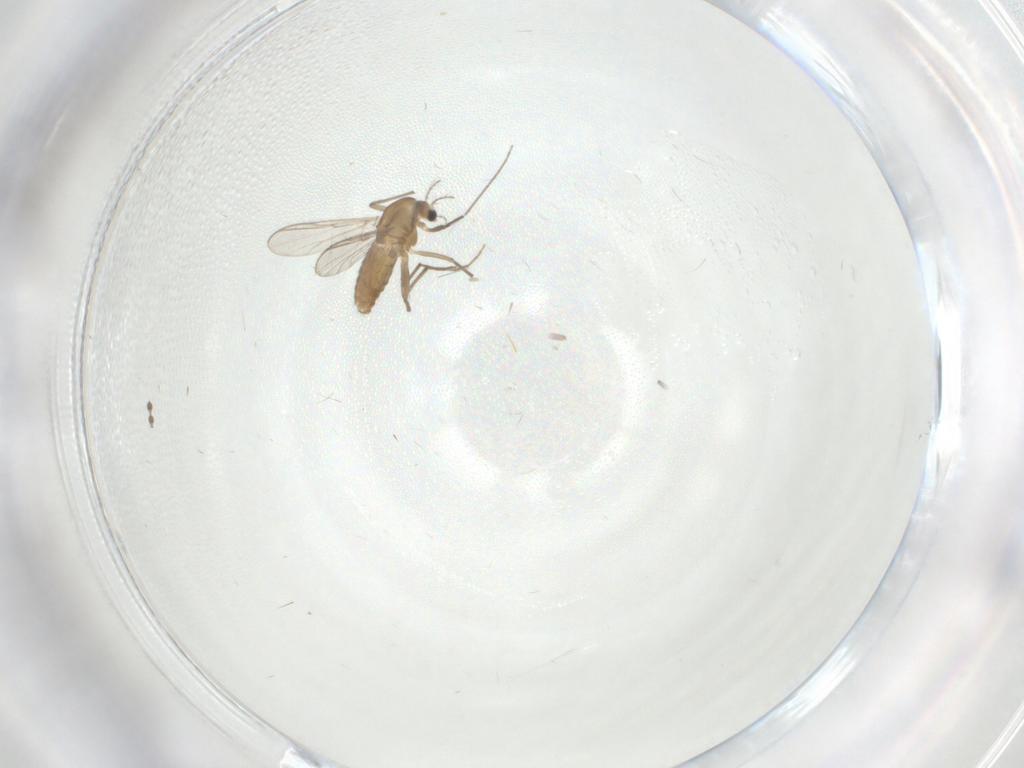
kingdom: Animalia
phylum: Arthropoda
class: Insecta
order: Diptera
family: Chironomidae
